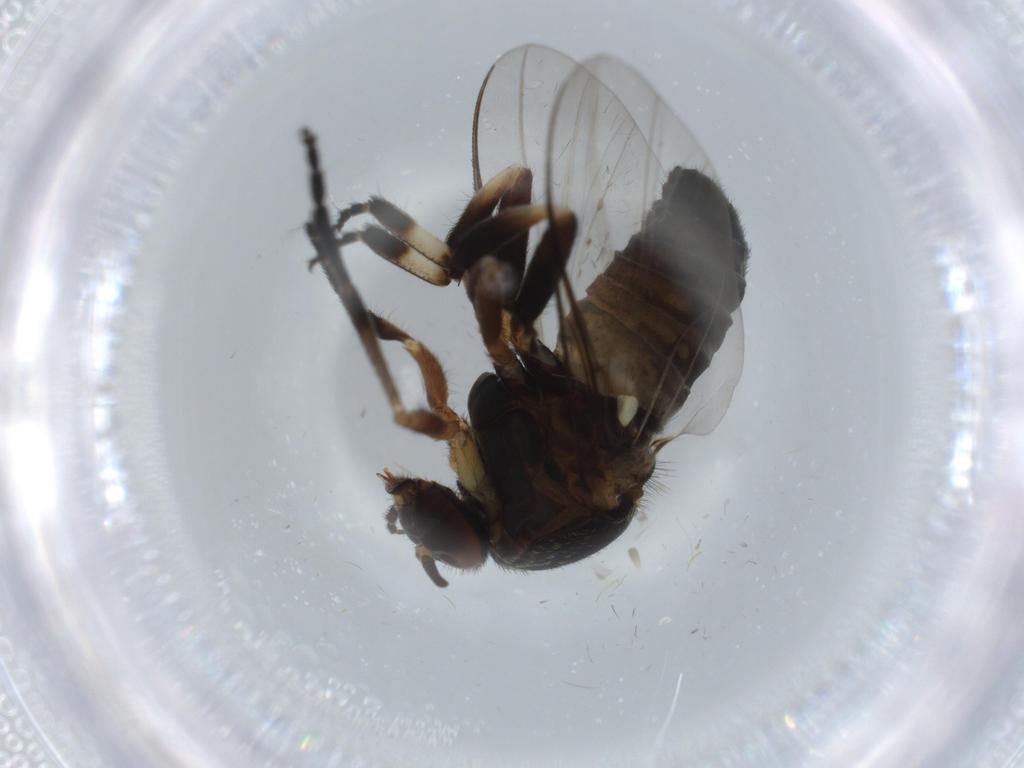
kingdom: Animalia
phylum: Arthropoda
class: Insecta
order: Diptera
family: Phoridae
